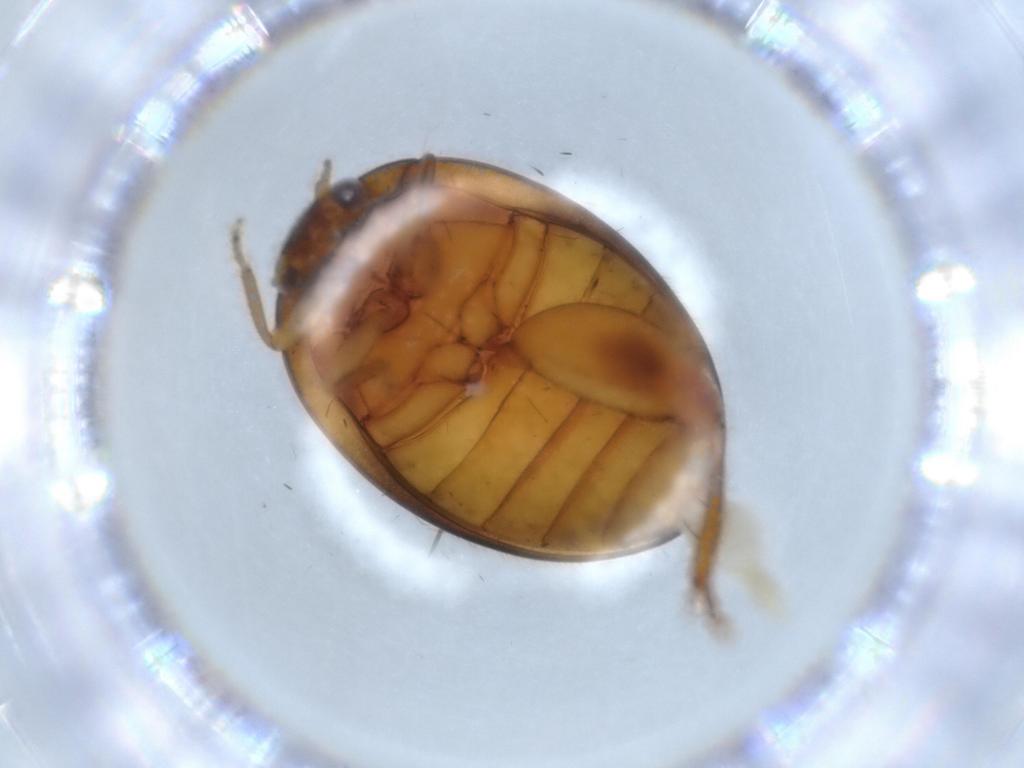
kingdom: Animalia
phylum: Arthropoda
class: Insecta
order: Coleoptera
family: Scirtidae
